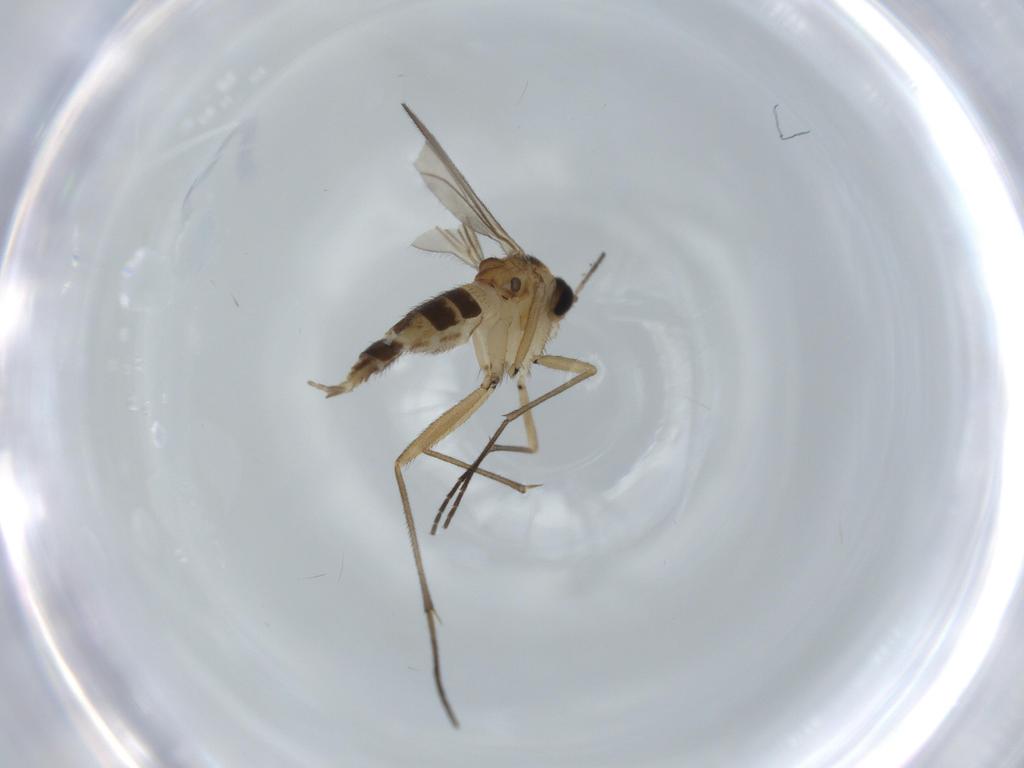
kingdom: Animalia
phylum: Arthropoda
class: Insecta
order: Diptera
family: Sciaridae
